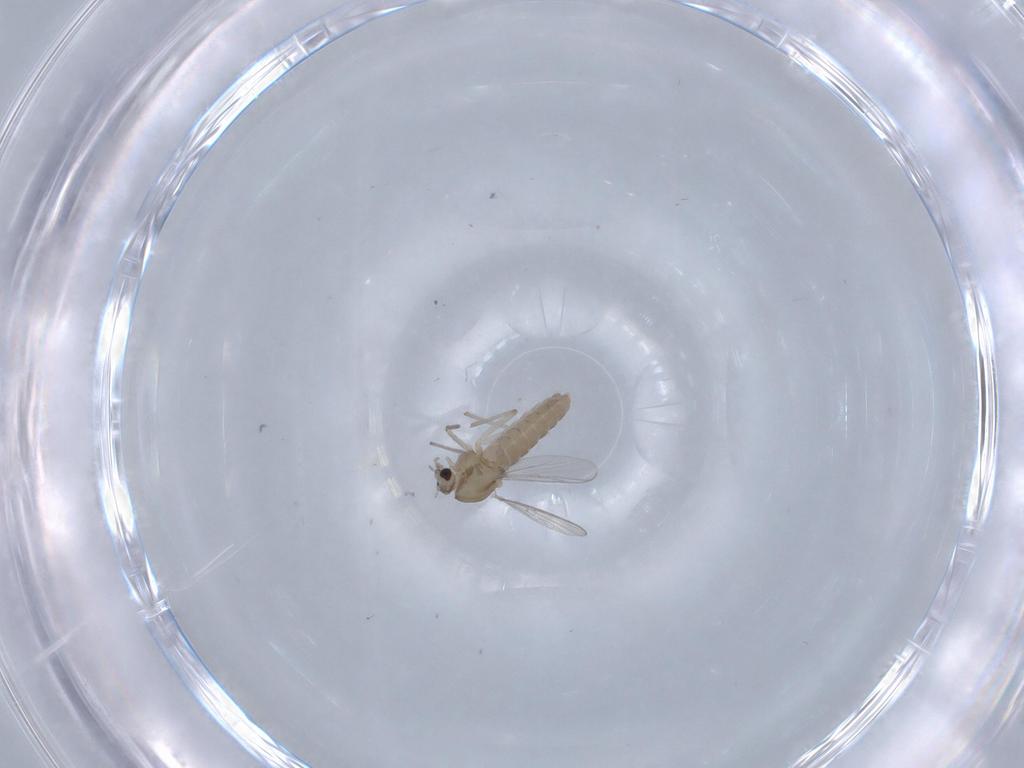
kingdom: Animalia
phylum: Arthropoda
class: Insecta
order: Diptera
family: Chironomidae
